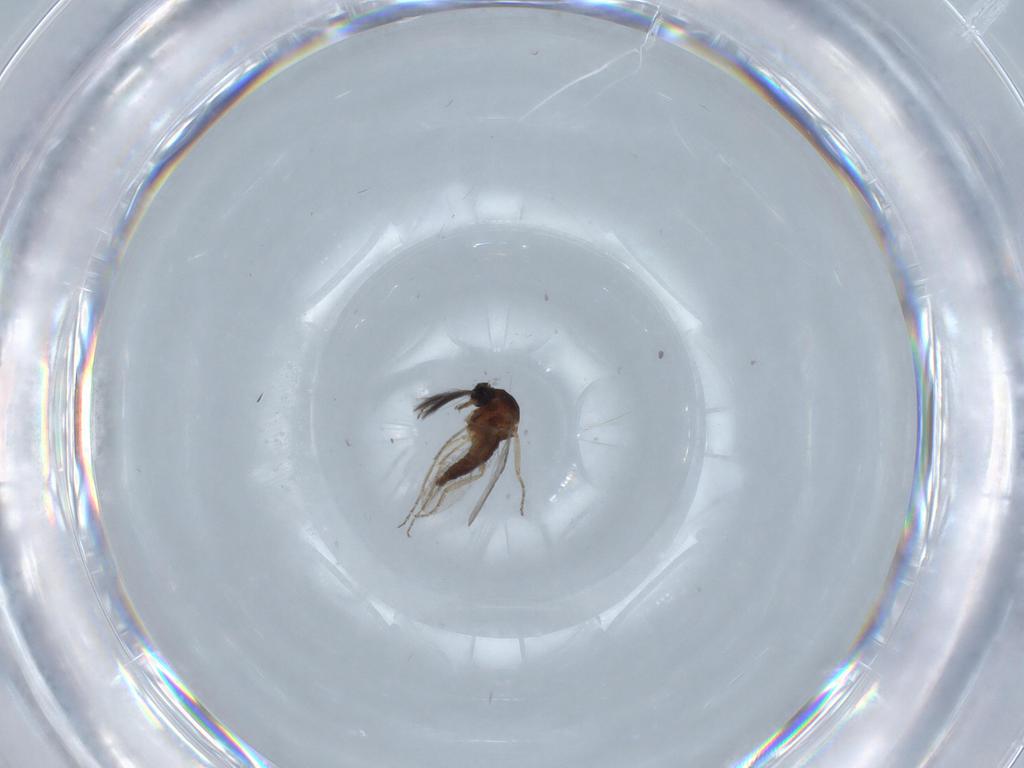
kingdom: Animalia
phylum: Arthropoda
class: Insecta
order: Diptera
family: Ceratopogonidae
